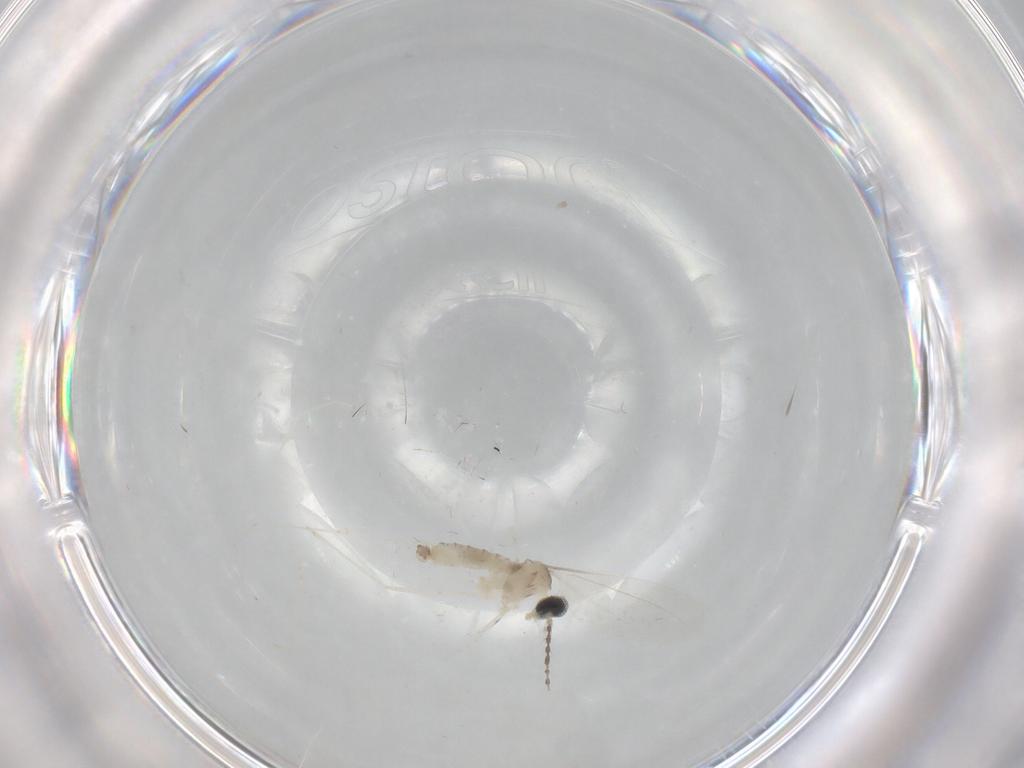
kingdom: Animalia
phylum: Arthropoda
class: Insecta
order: Diptera
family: Cecidomyiidae
